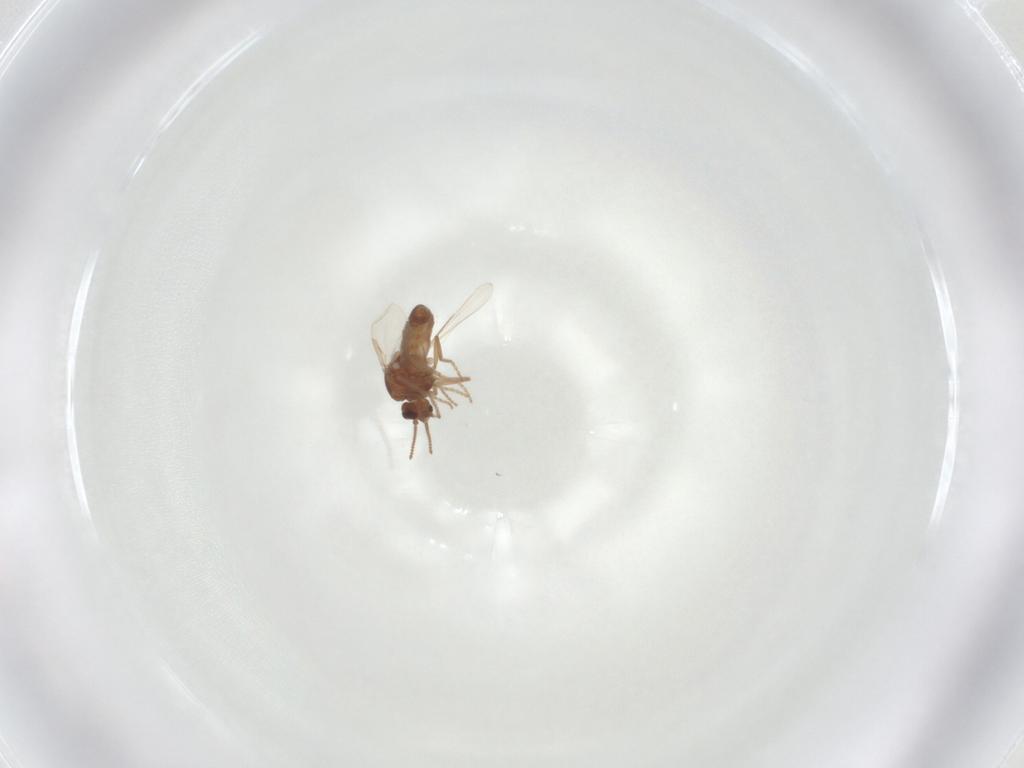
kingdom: Animalia
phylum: Arthropoda
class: Insecta
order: Diptera
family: Ceratopogonidae
